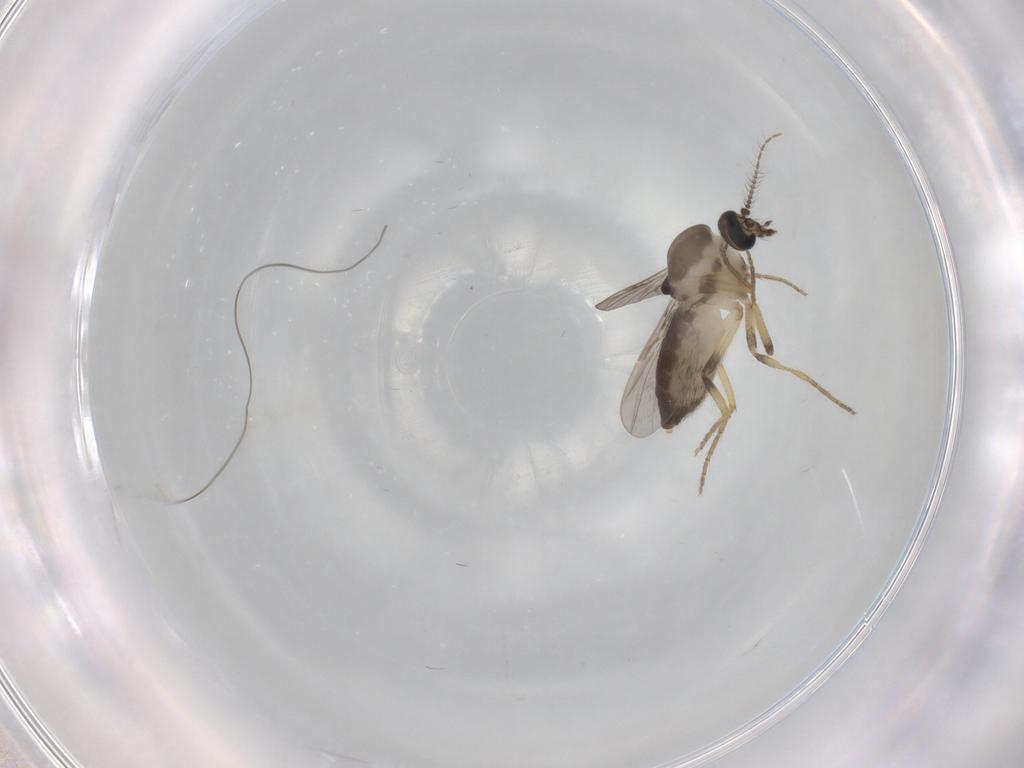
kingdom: Animalia
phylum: Arthropoda
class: Insecta
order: Diptera
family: Ceratopogonidae
